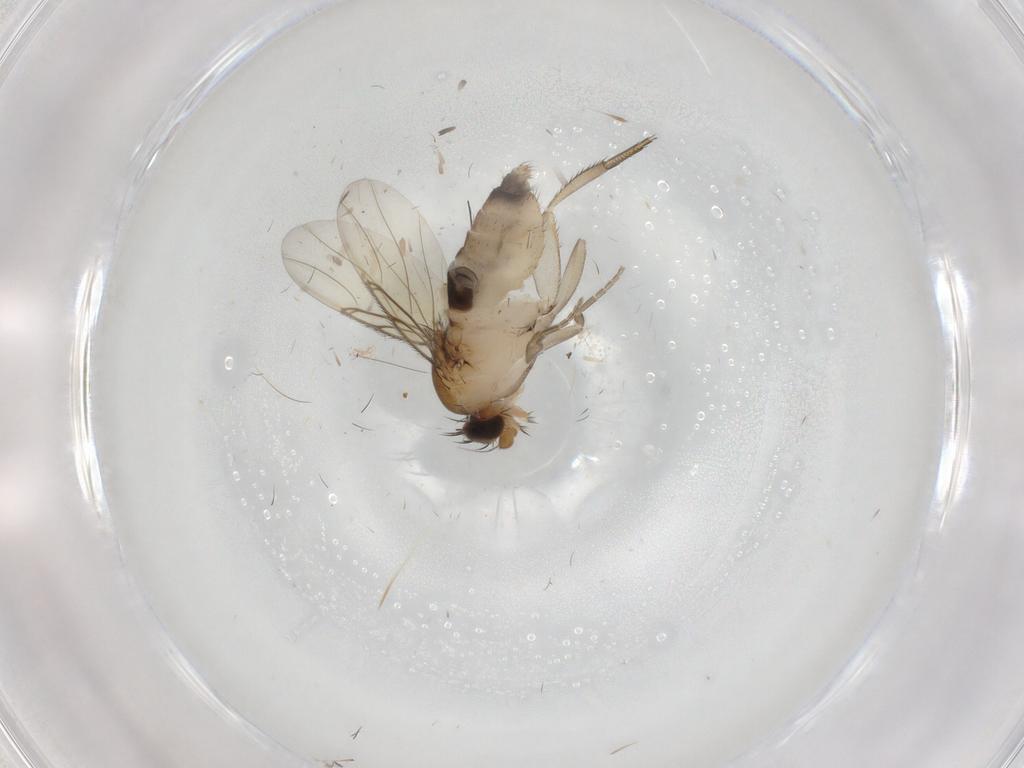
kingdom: Animalia
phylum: Arthropoda
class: Insecta
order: Diptera
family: Phoridae
